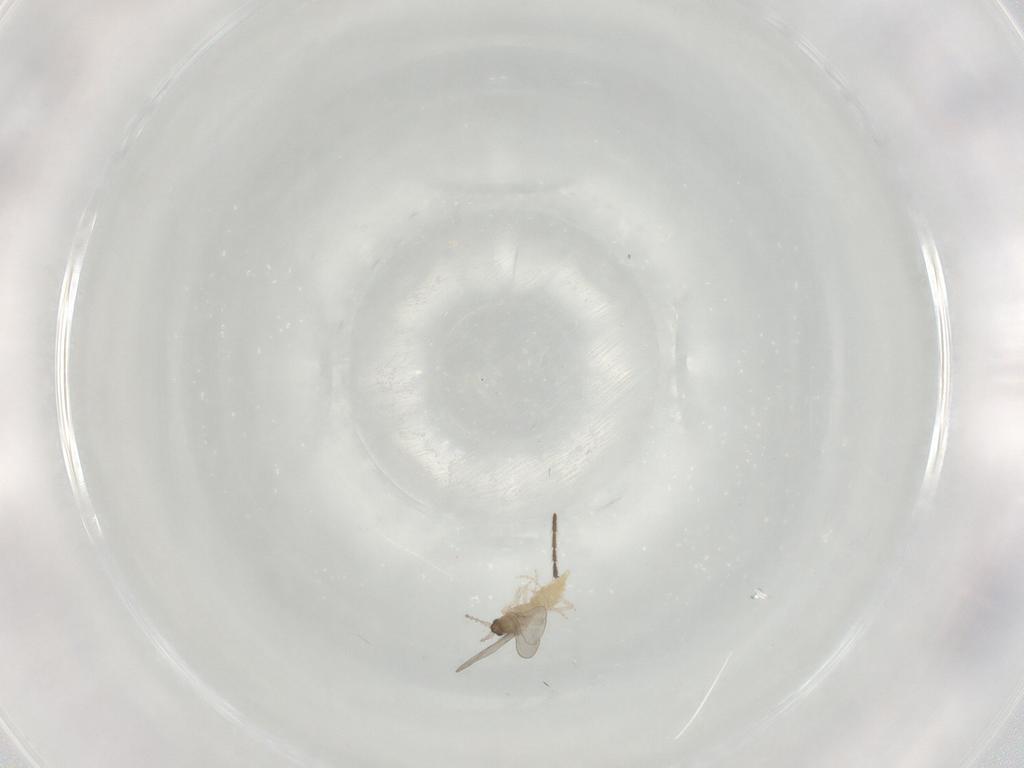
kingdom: Animalia
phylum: Arthropoda
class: Insecta
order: Diptera
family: Cecidomyiidae
